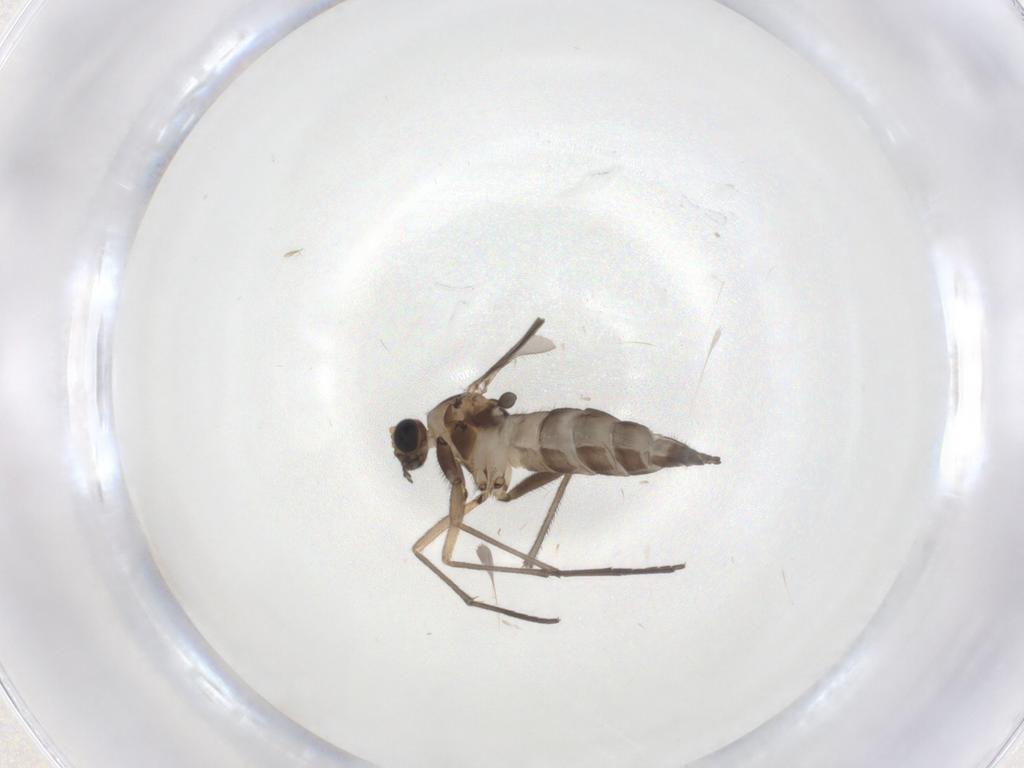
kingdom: Animalia
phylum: Arthropoda
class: Insecta
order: Diptera
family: Sciaridae
